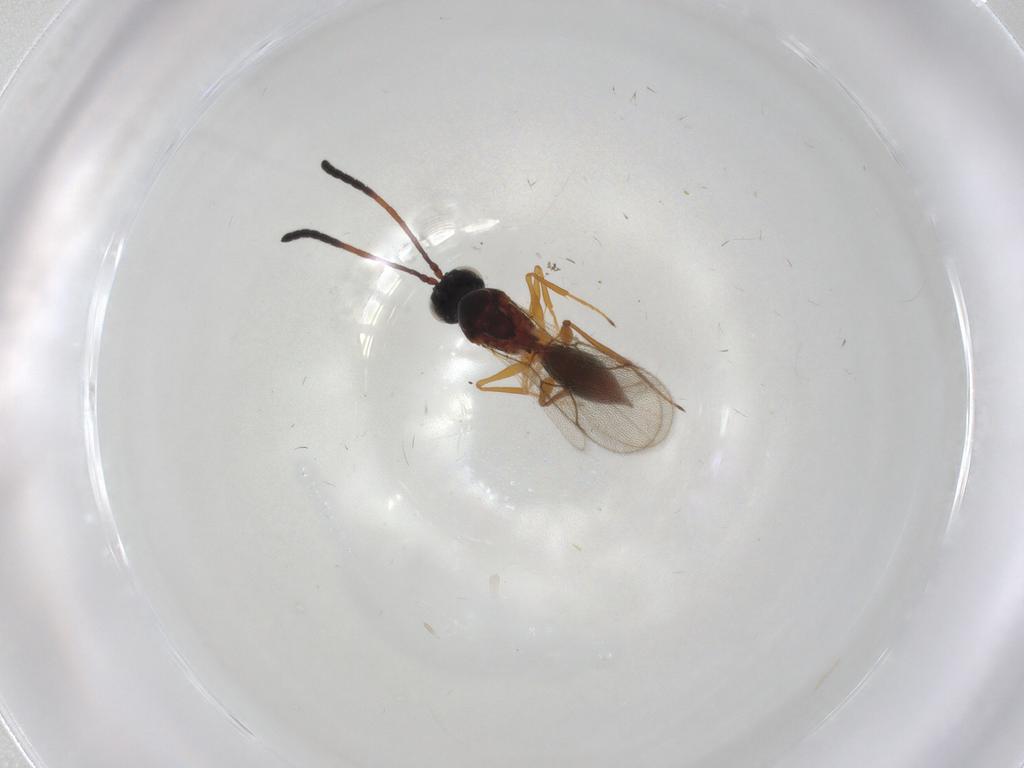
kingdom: Animalia
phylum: Arthropoda
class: Insecta
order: Hymenoptera
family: Figitidae
